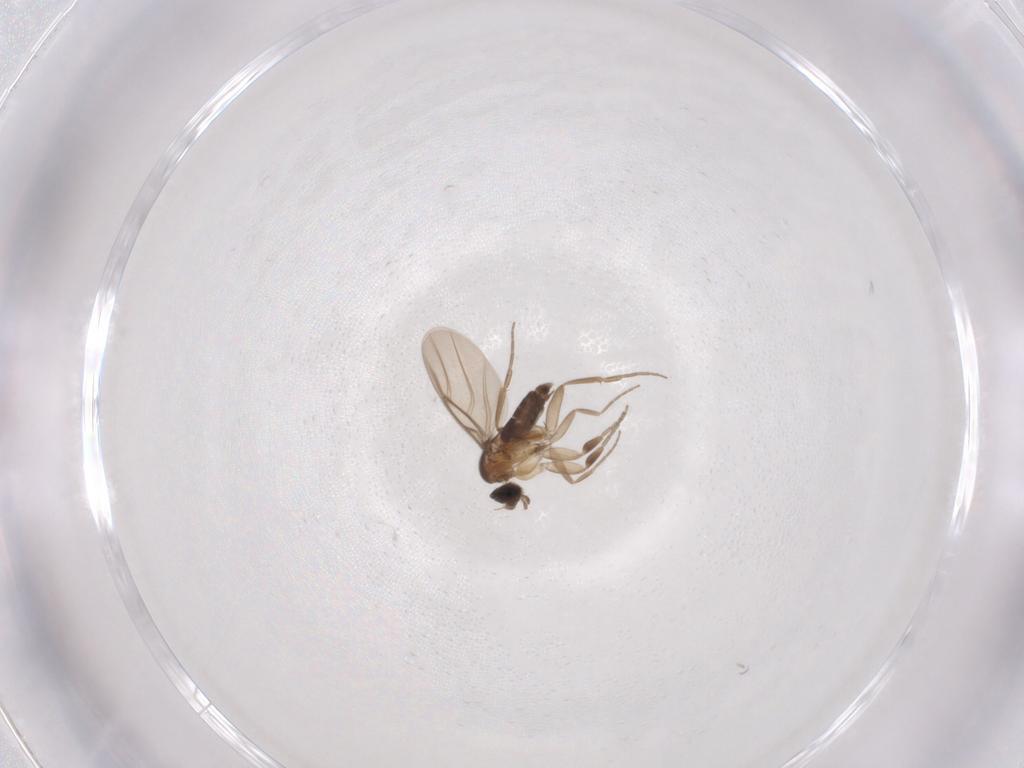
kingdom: Animalia
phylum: Arthropoda
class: Insecta
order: Diptera
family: Phoridae
